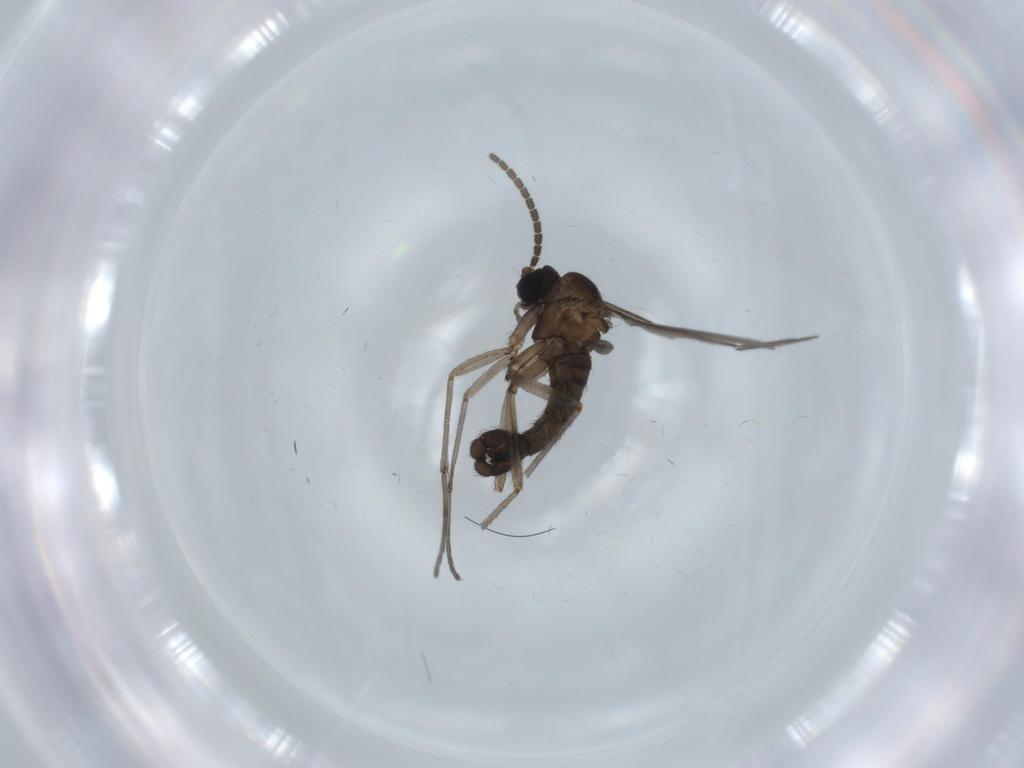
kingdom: Animalia
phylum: Arthropoda
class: Insecta
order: Diptera
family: Sciaridae
